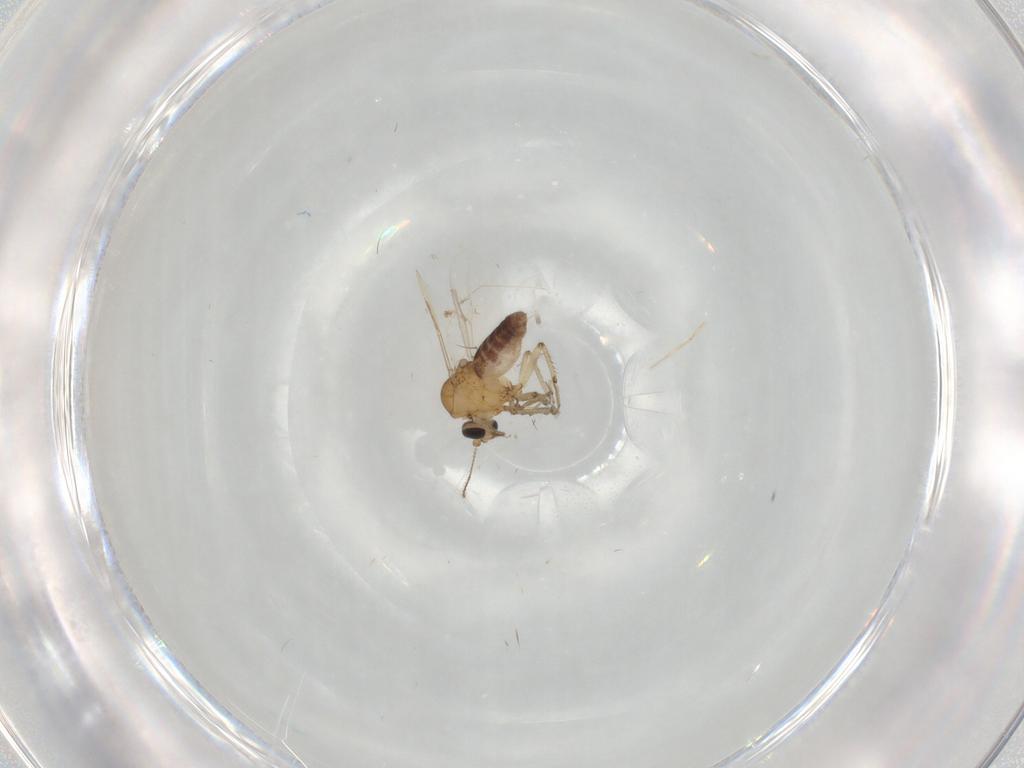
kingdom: Animalia
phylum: Arthropoda
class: Insecta
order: Diptera
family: Ceratopogonidae
